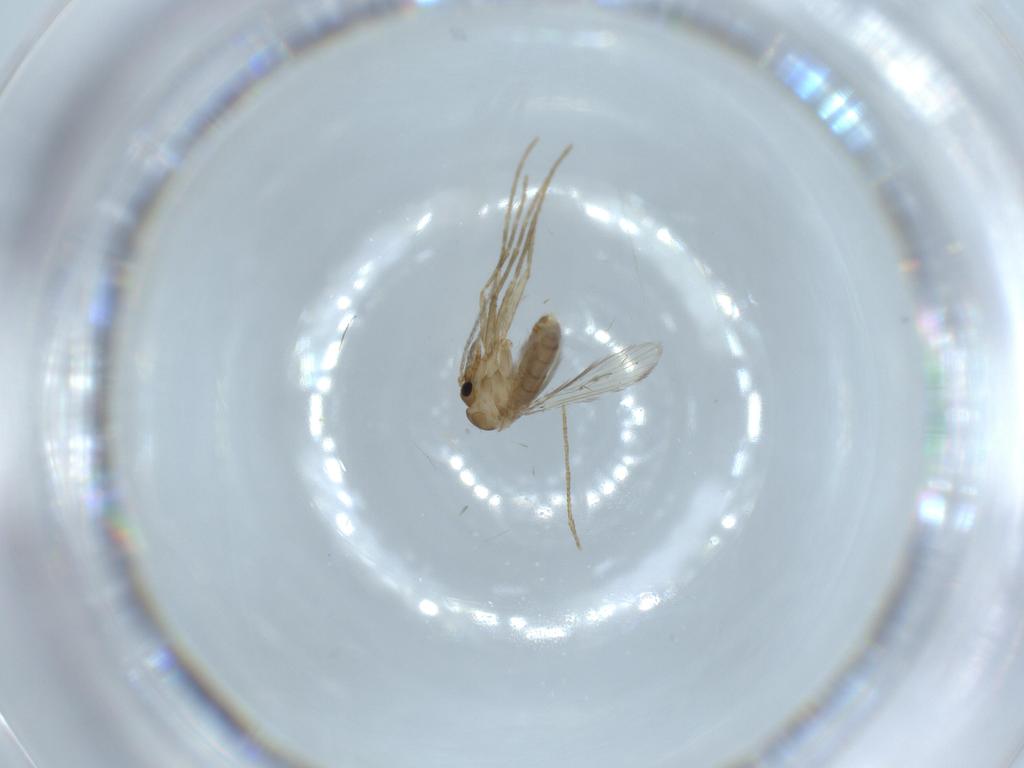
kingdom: Animalia
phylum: Arthropoda
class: Insecta
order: Diptera
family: Psychodidae
